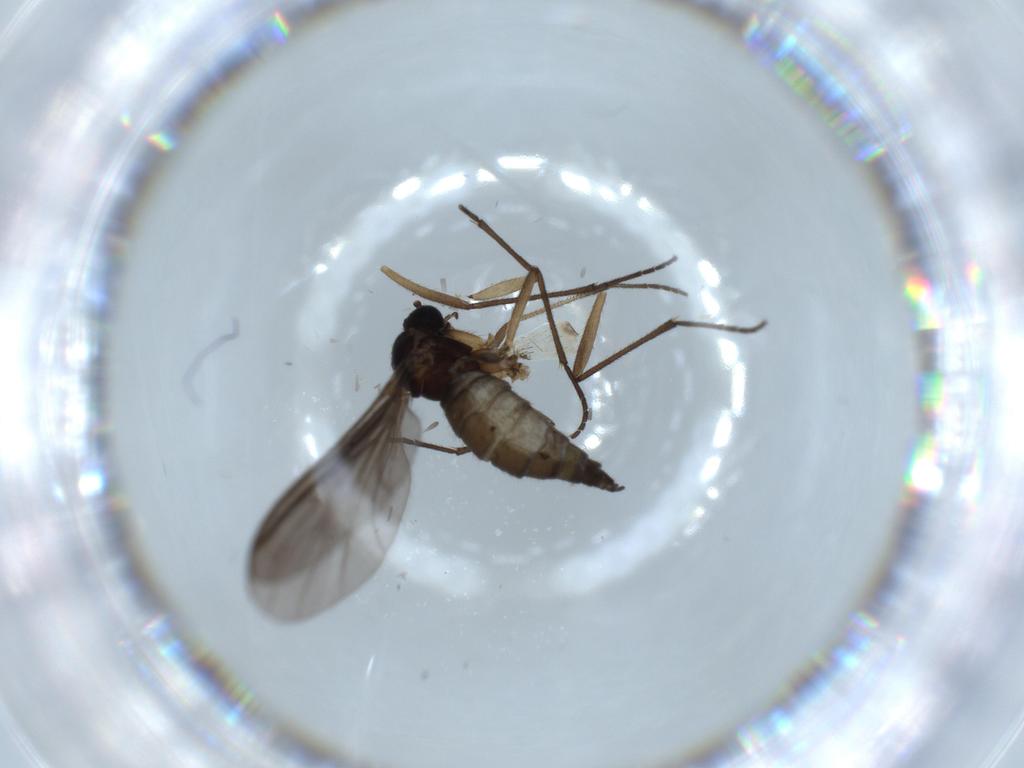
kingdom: Animalia
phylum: Arthropoda
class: Insecta
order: Diptera
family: Sciaridae
